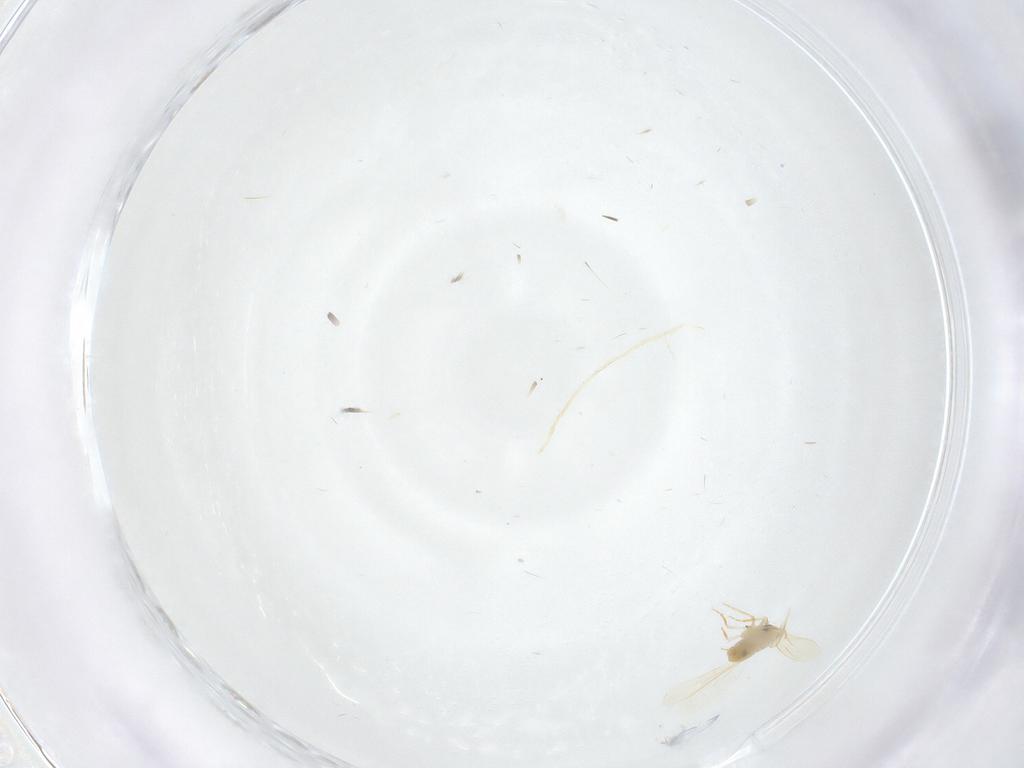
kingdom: Animalia
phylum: Arthropoda
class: Insecta
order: Hemiptera
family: Aleyrodidae
